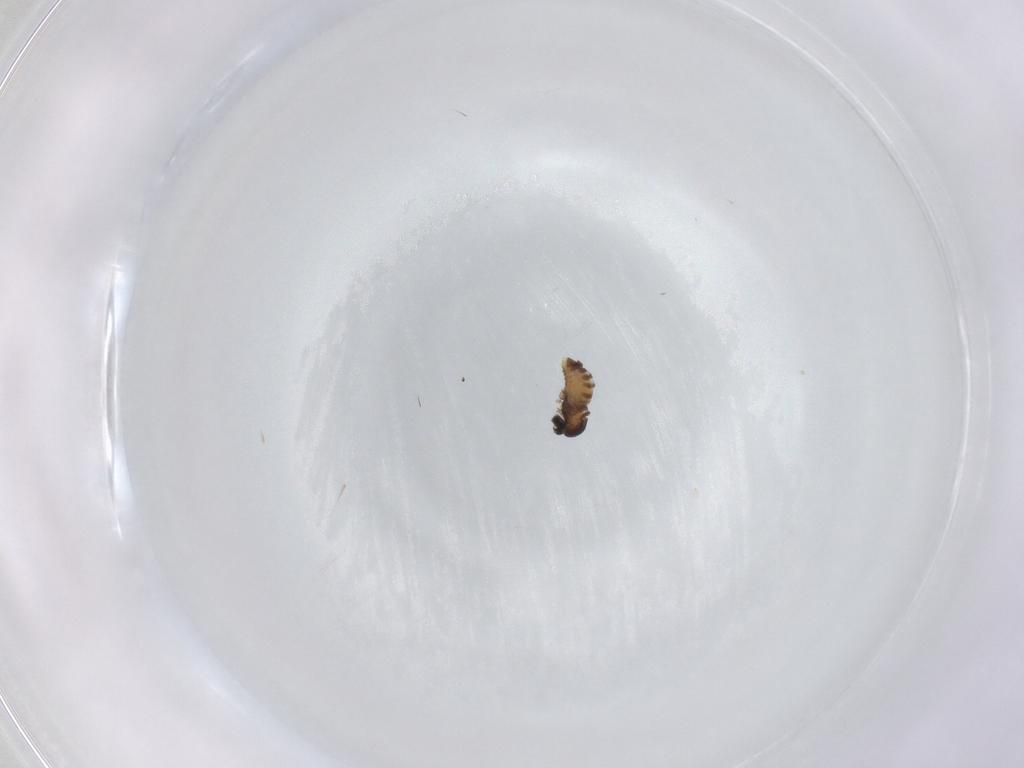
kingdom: Animalia
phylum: Arthropoda
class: Insecta
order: Diptera
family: Cecidomyiidae
